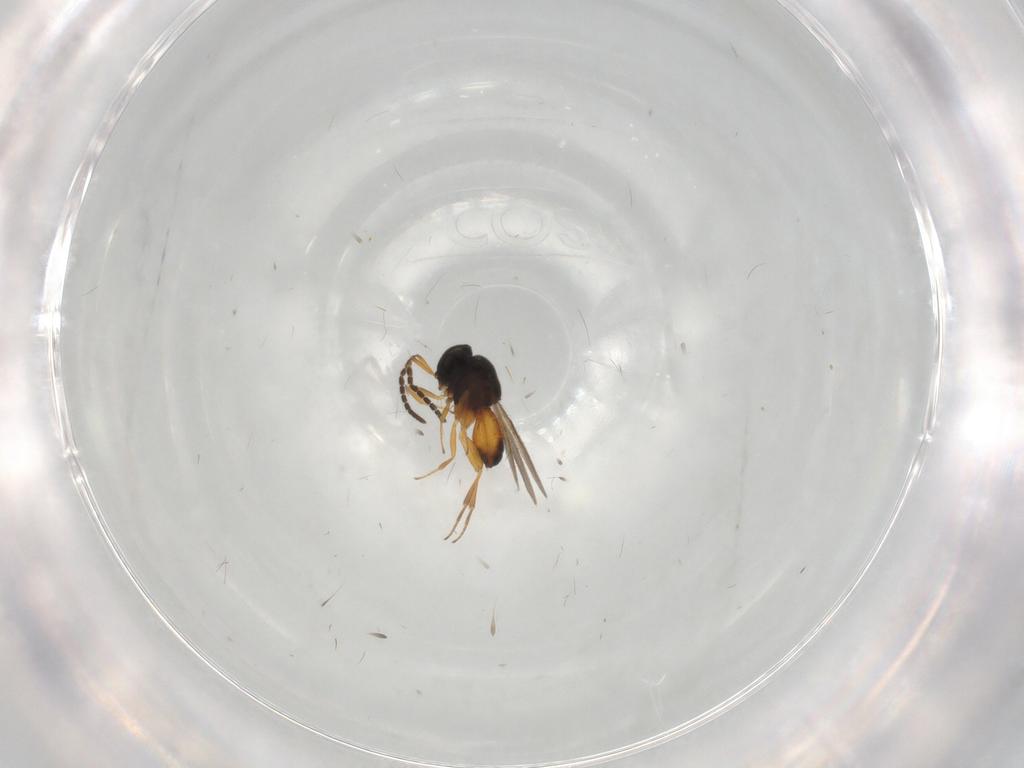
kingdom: Animalia
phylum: Arthropoda
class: Insecta
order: Hymenoptera
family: Scelionidae
